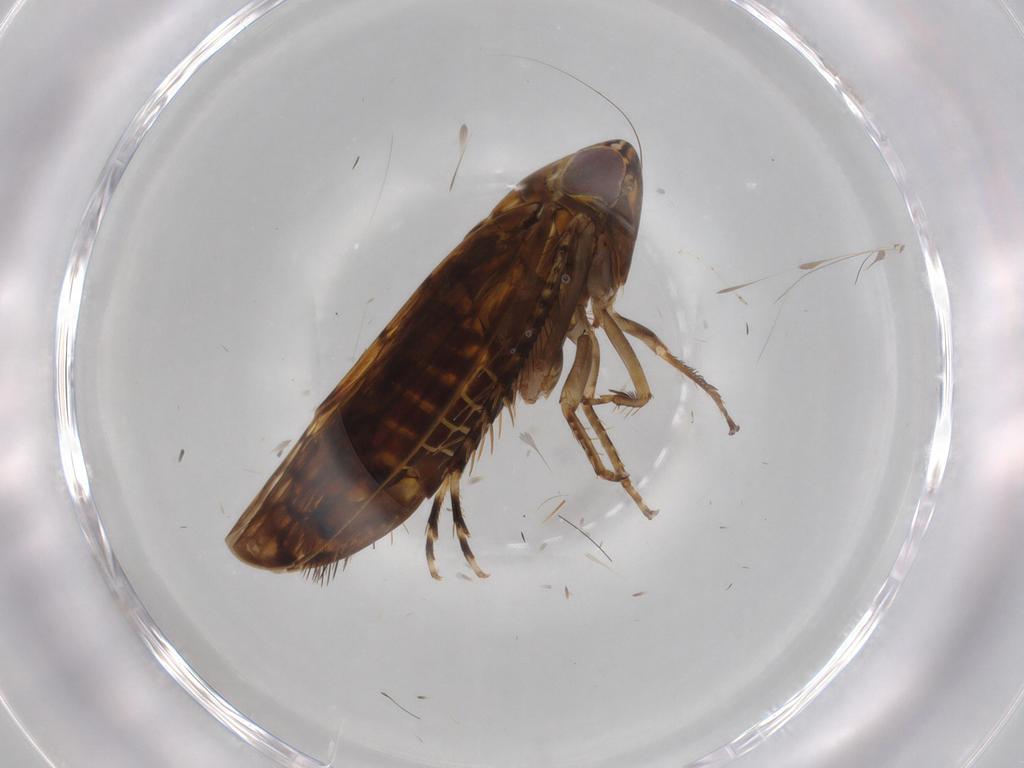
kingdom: Animalia
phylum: Arthropoda
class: Insecta
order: Hemiptera
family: Cicadellidae
